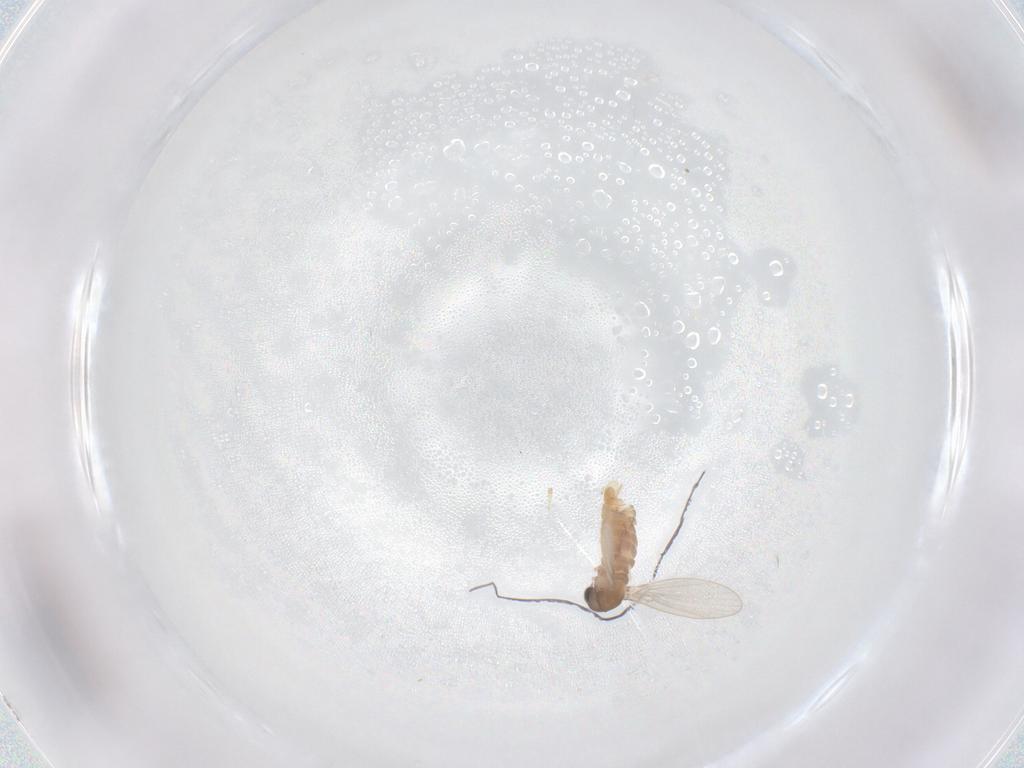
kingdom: Animalia
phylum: Arthropoda
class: Insecta
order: Diptera
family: Psychodidae
